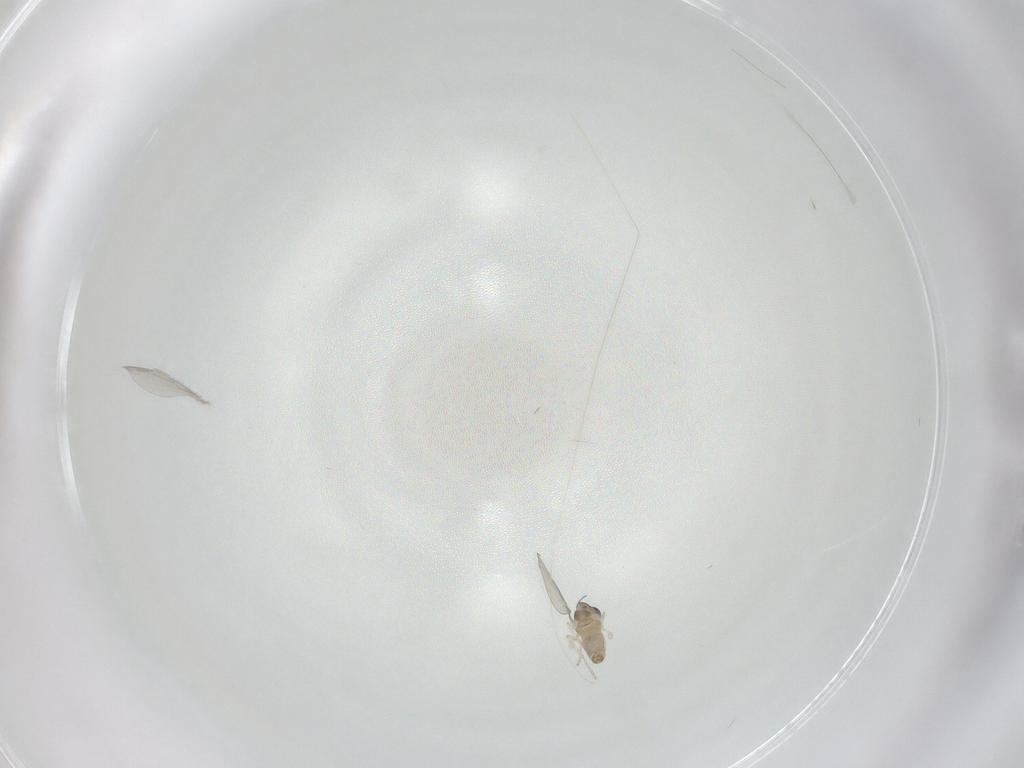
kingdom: Animalia
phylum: Arthropoda
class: Insecta
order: Diptera
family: Cecidomyiidae
